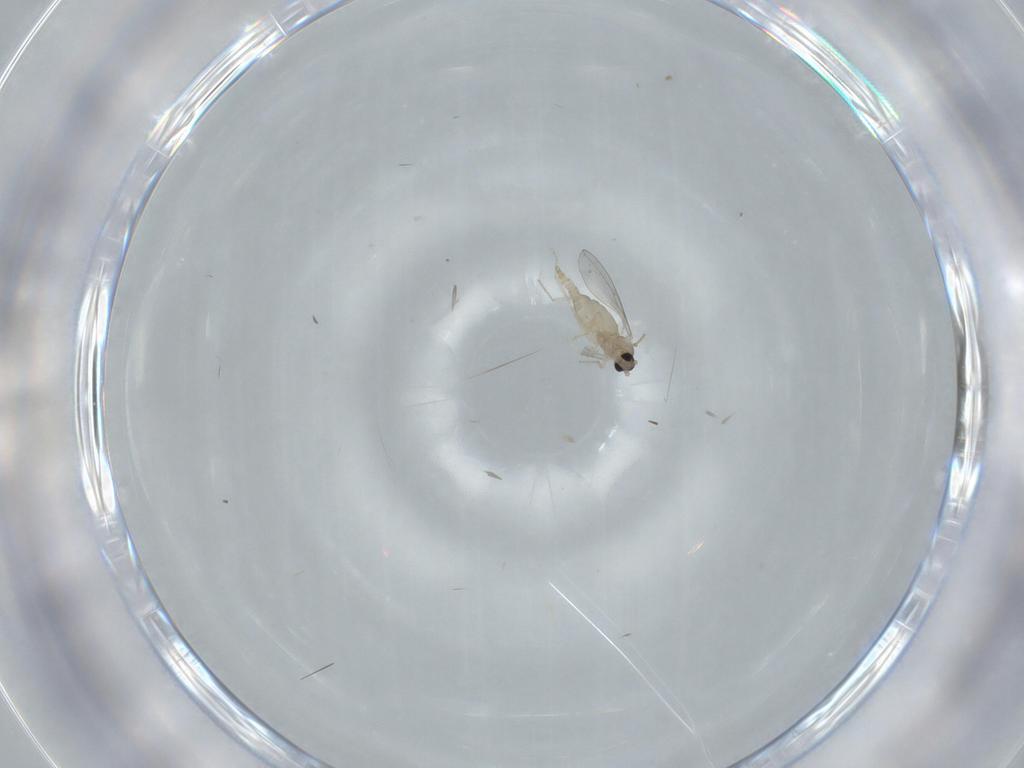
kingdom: Animalia
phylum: Arthropoda
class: Insecta
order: Diptera
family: Cecidomyiidae
